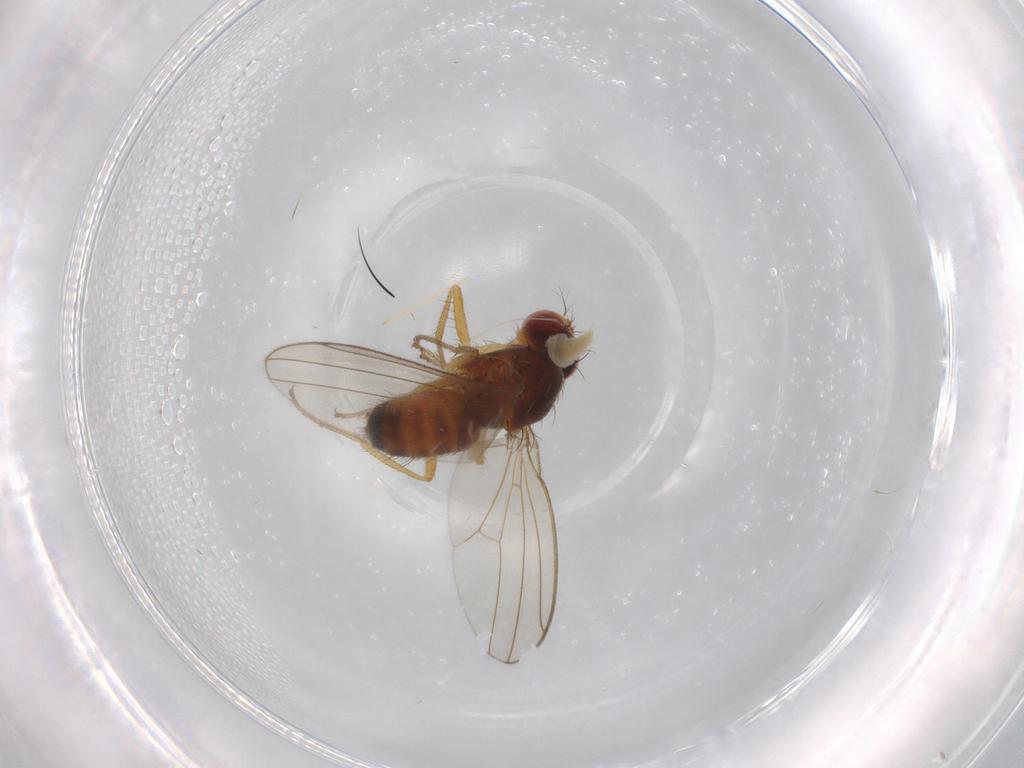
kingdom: Animalia
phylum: Arthropoda
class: Insecta
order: Diptera
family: Drosophilidae
